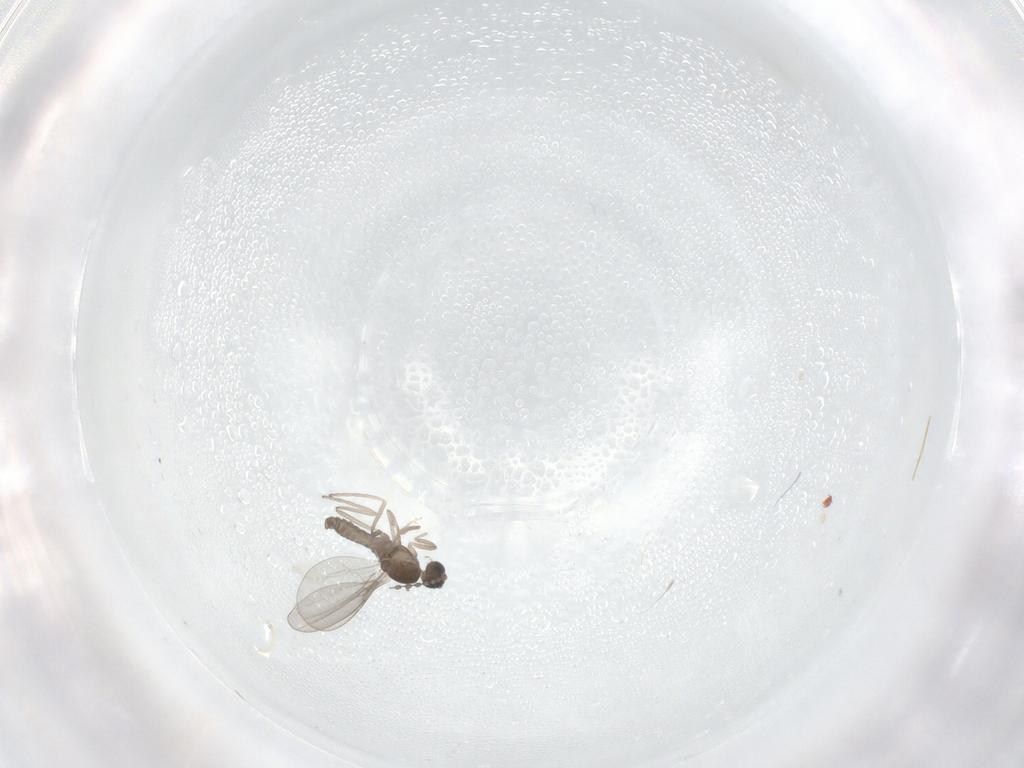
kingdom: Animalia
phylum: Arthropoda
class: Insecta
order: Diptera
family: Cecidomyiidae
